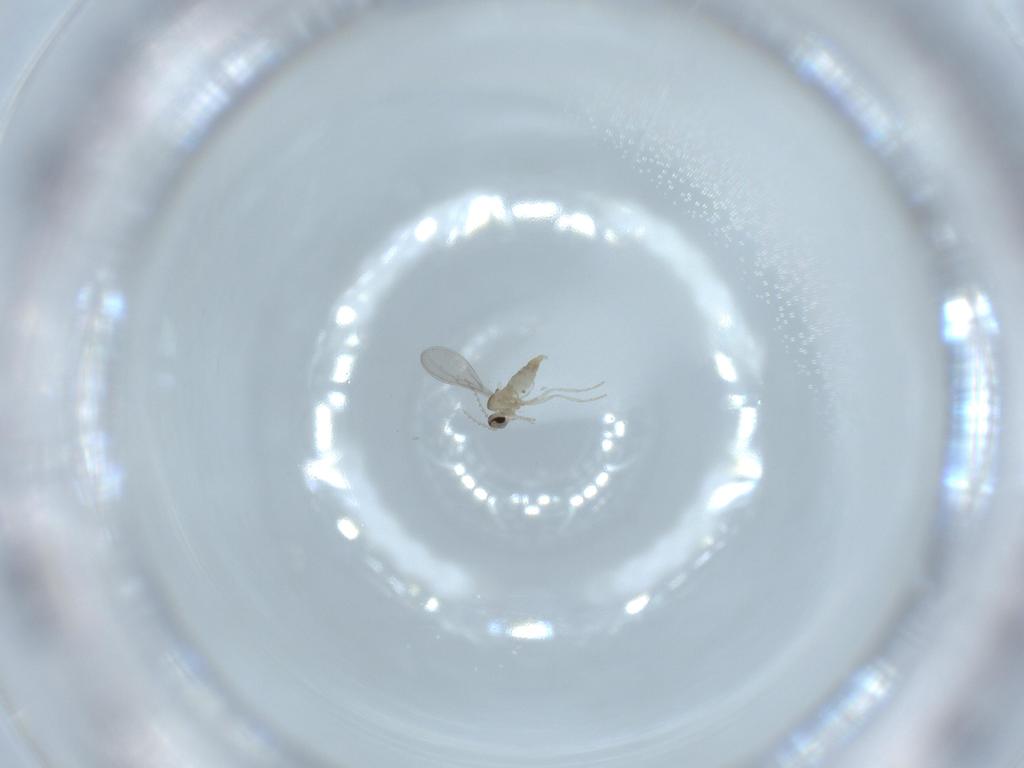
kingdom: Animalia
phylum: Arthropoda
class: Insecta
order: Diptera
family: Cecidomyiidae
